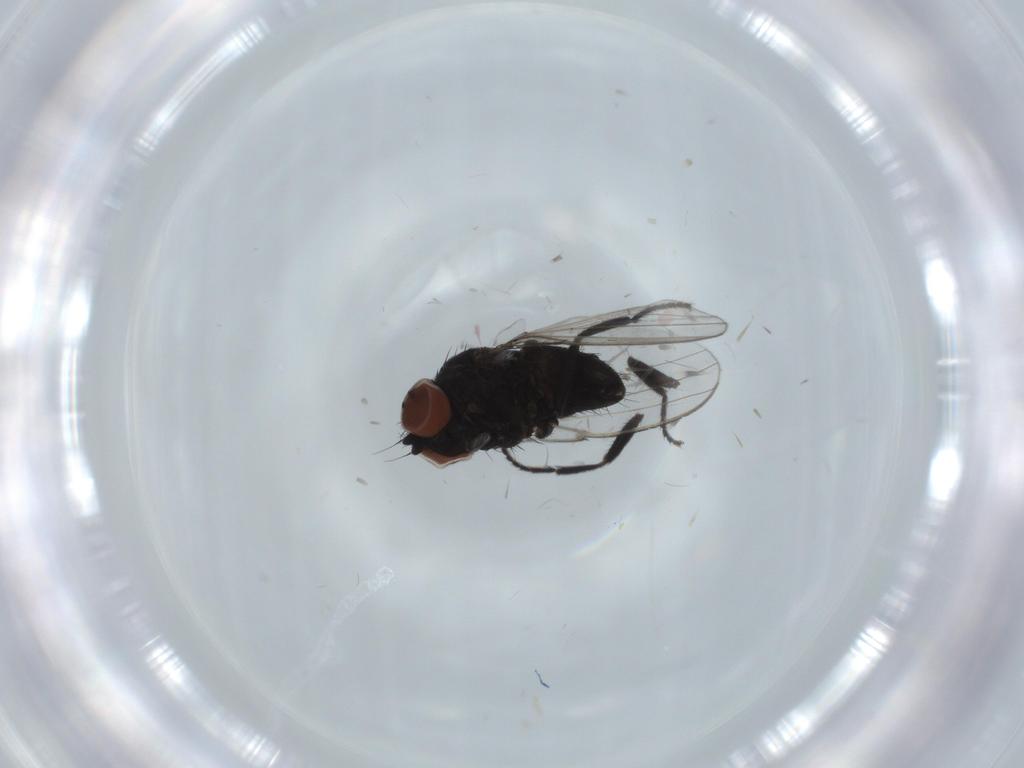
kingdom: Animalia
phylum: Arthropoda
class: Insecta
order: Diptera
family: Milichiidae
